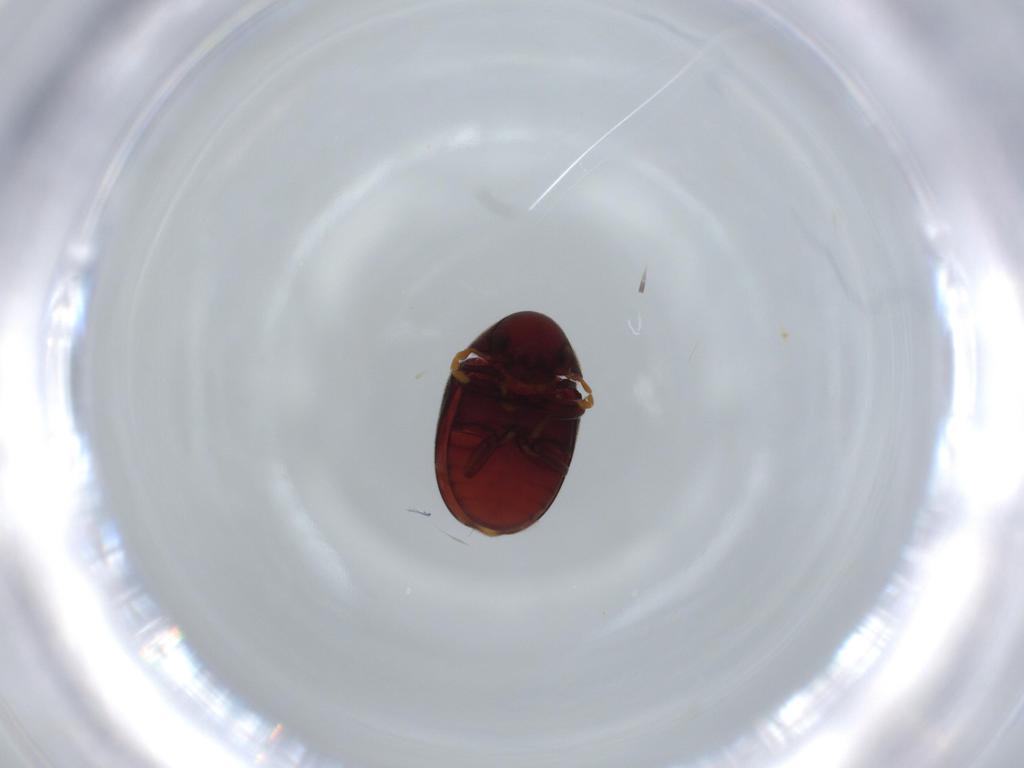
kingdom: Animalia
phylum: Arthropoda
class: Insecta
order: Coleoptera
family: Ptinidae
